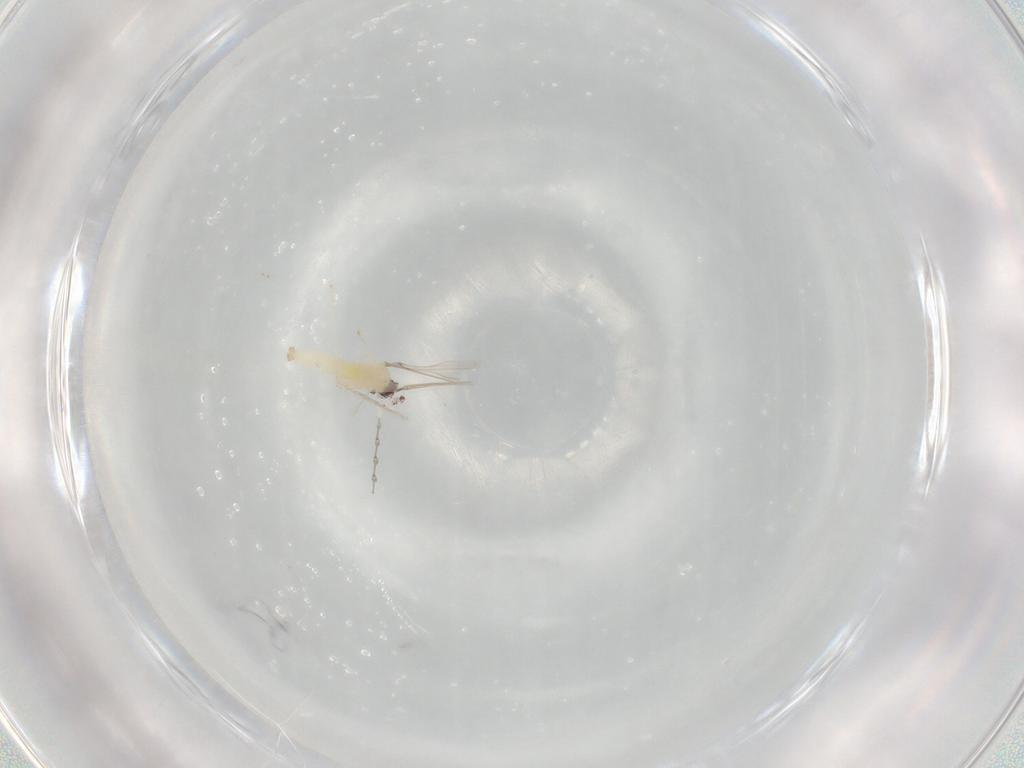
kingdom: Animalia
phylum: Arthropoda
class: Insecta
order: Diptera
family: Cecidomyiidae
